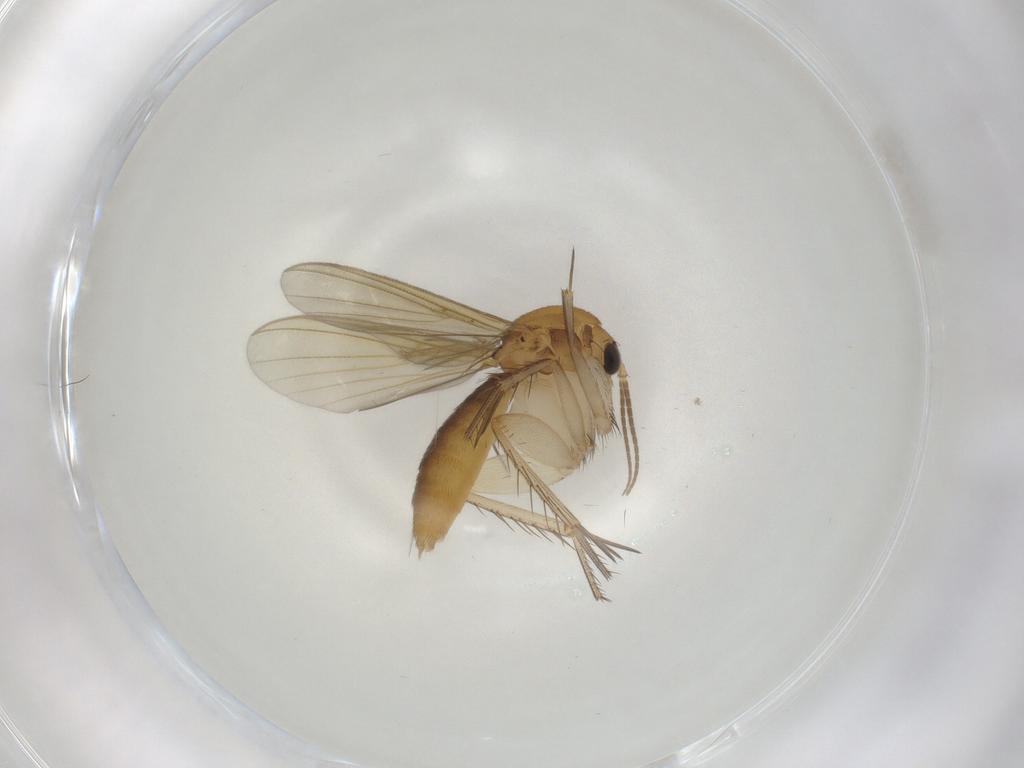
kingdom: Animalia
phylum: Arthropoda
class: Insecta
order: Diptera
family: Mycetophilidae
